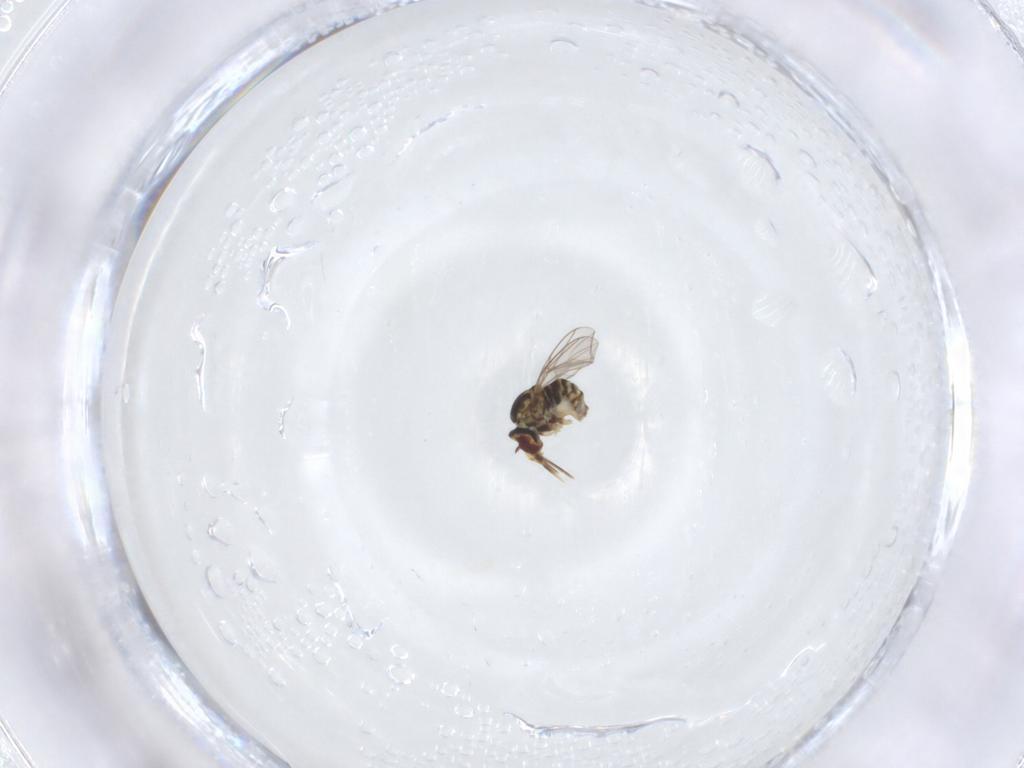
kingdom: Animalia
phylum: Arthropoda
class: Insecta
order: Diptera
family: Bombyliidae
